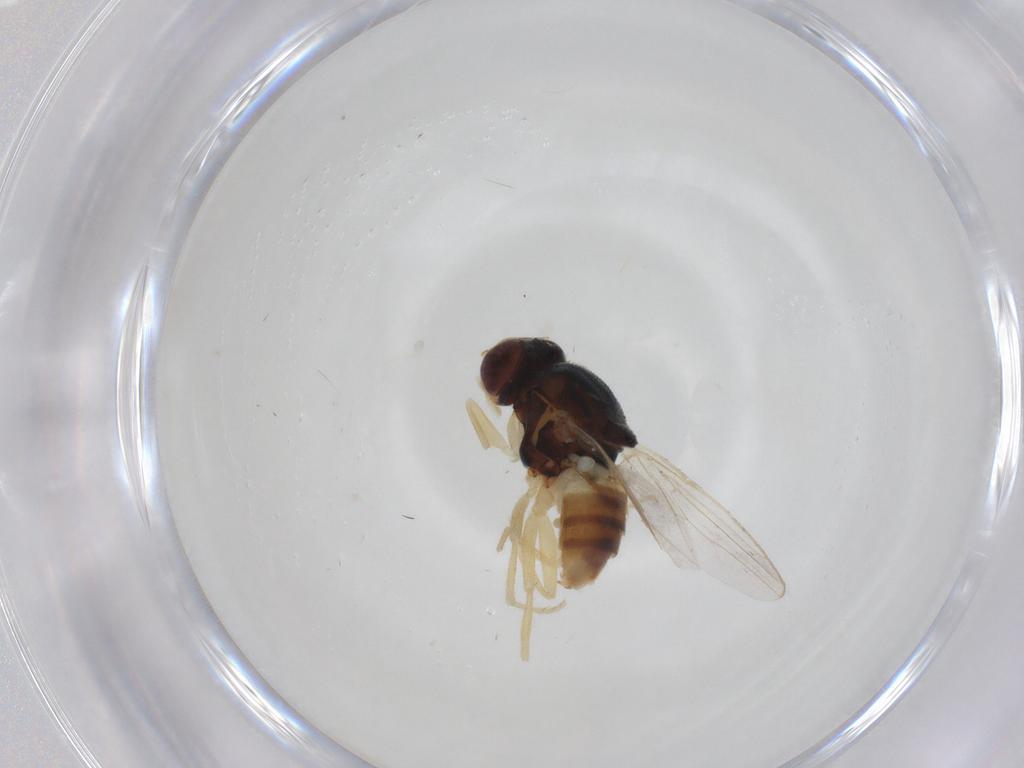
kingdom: Animalia
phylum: Arthropoda
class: Insecta
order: Diptera
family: Chloropidae
